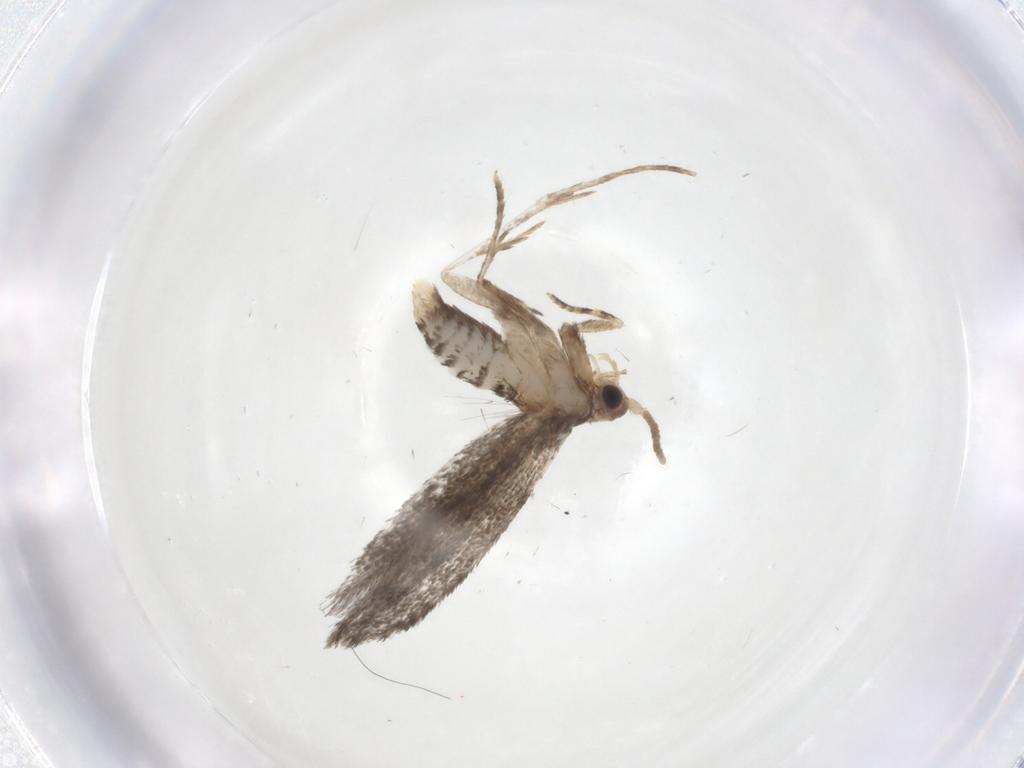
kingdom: Animalia
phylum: Arthropoda
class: Insecta
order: Lepidoptera
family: Tineidae
